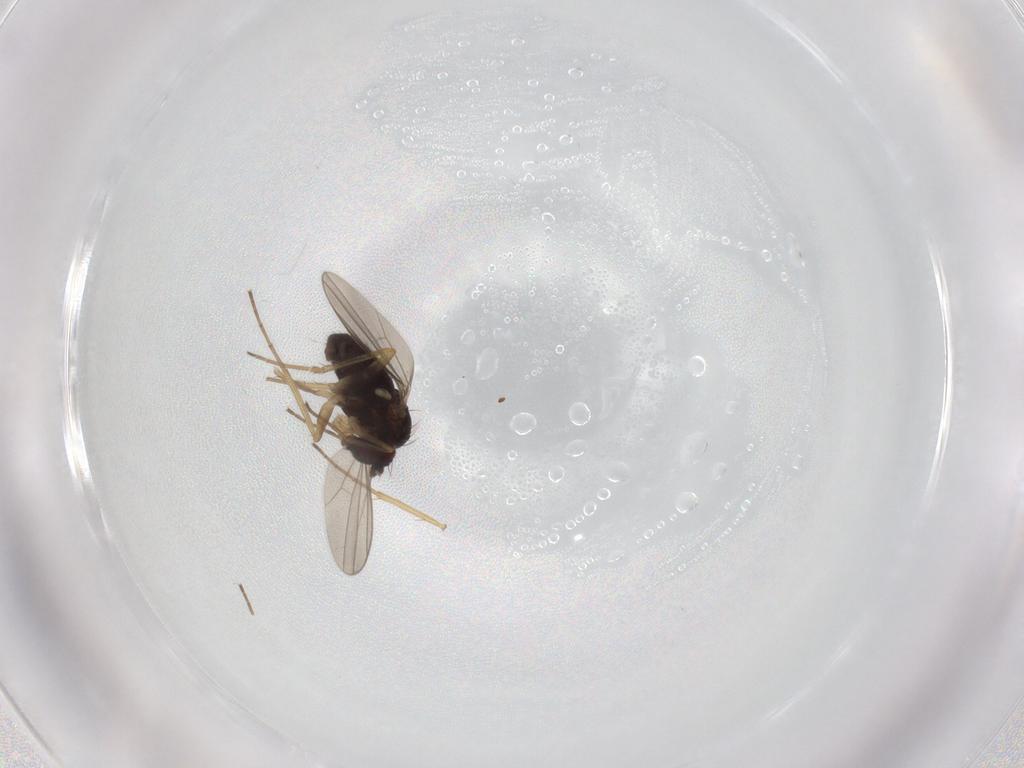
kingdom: Animalia
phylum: Arthropoda
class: Insecta
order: Diptera
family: Dolichopodidae
